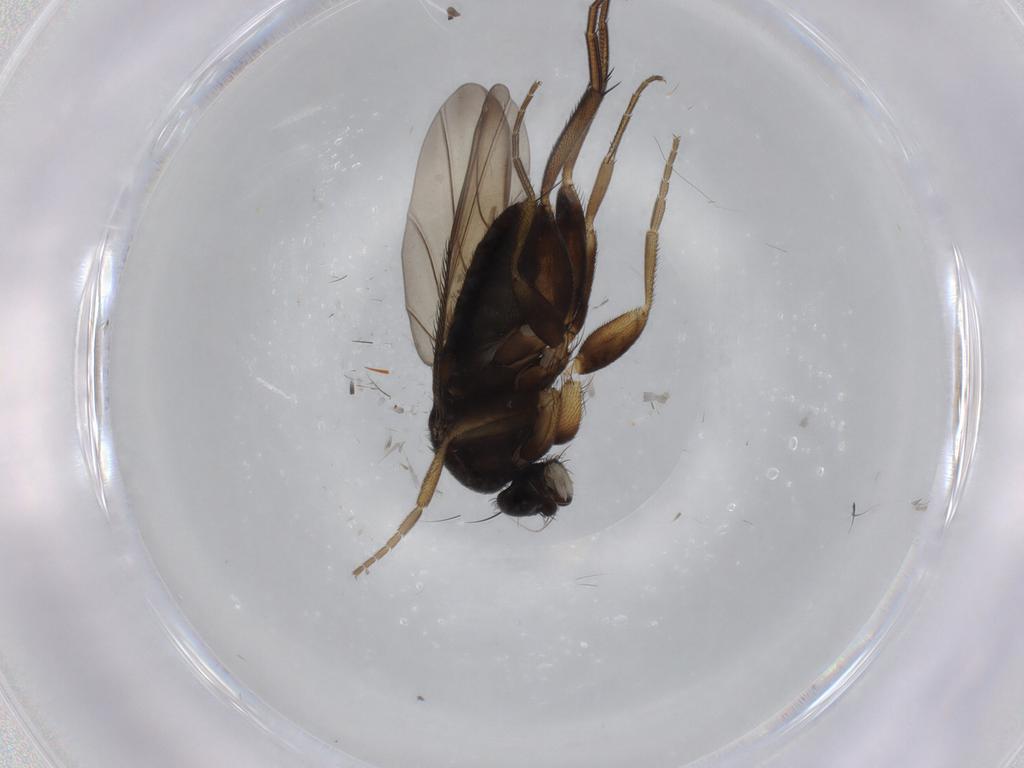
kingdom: Animalia
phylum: Arthropoda
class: Insecta
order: Diptera
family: Phoridae
